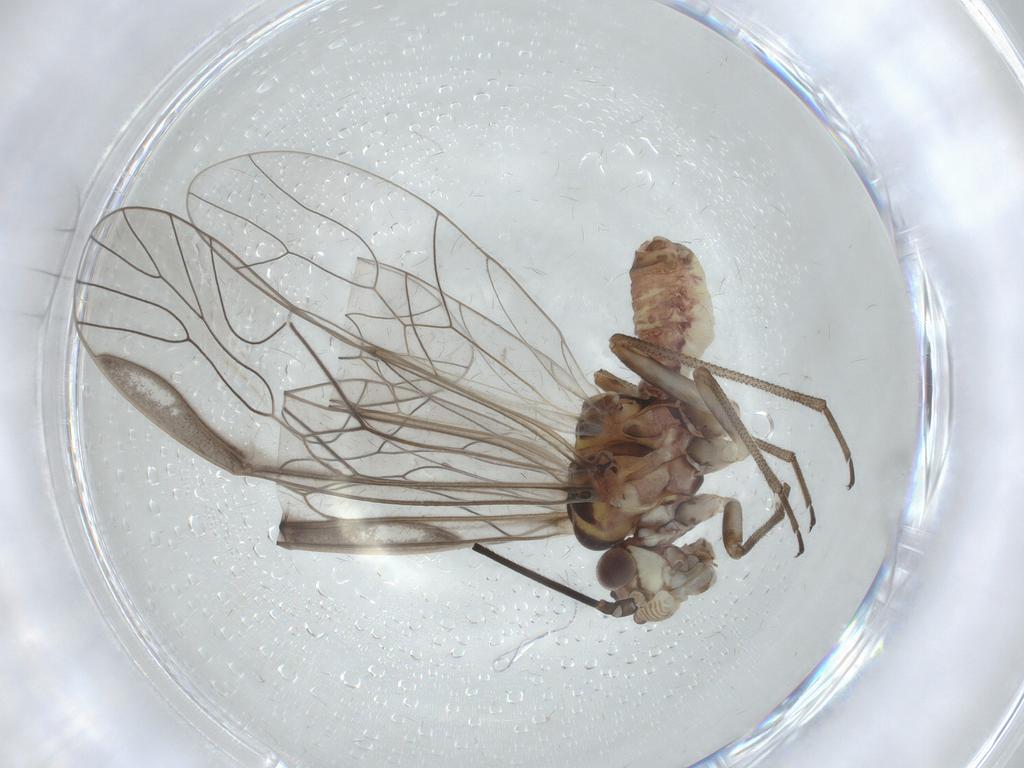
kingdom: Animalia
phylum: Arthropoda
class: Insecta
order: Psocodea
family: Caeciliusidae
